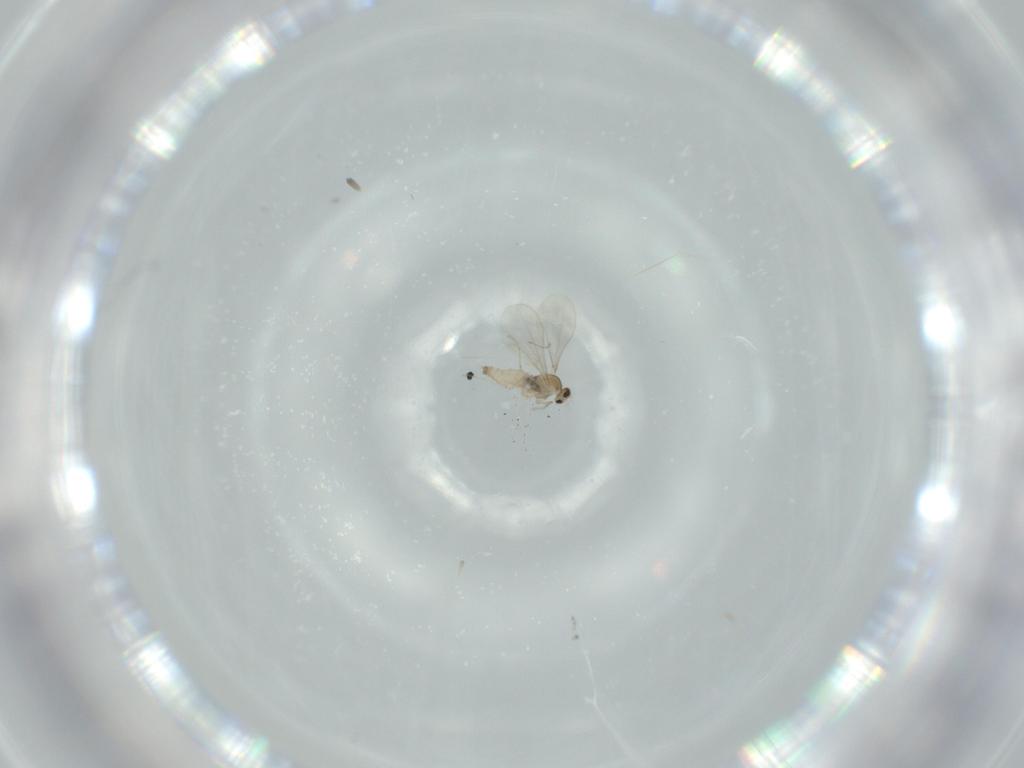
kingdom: Animalia
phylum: Arthropoda
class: Insecta
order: Diptera
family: Cecidomyiidae
